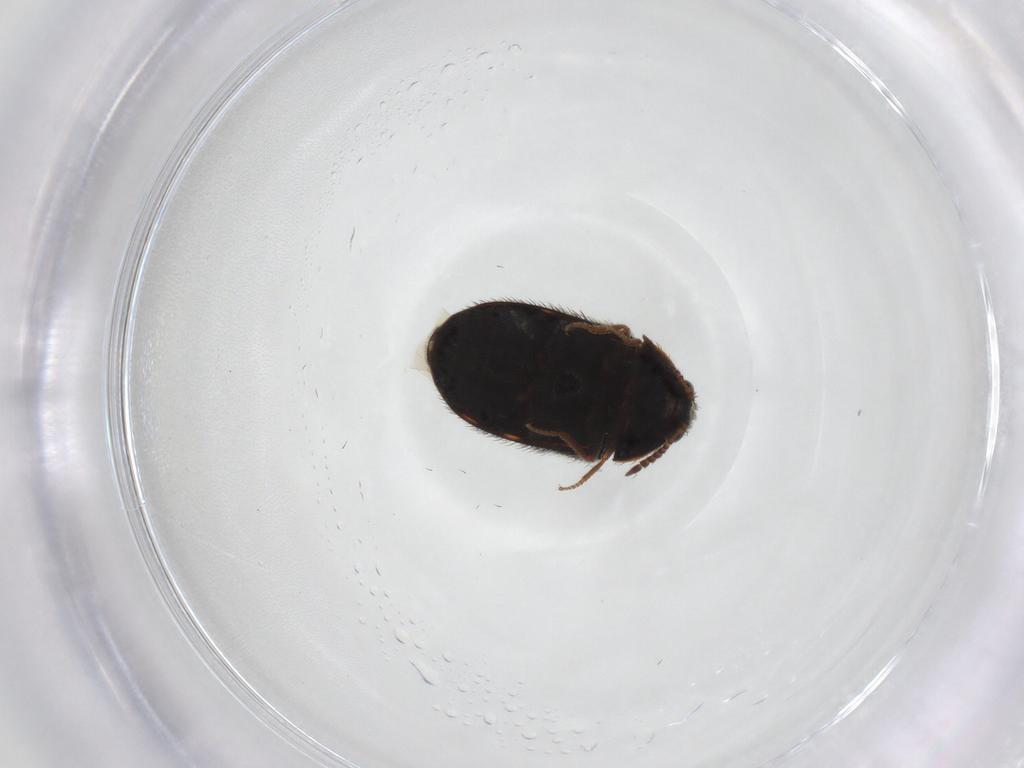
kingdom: Animalia
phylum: Arthropoda
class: Insecta
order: Coleoptera
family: Dermestidae
